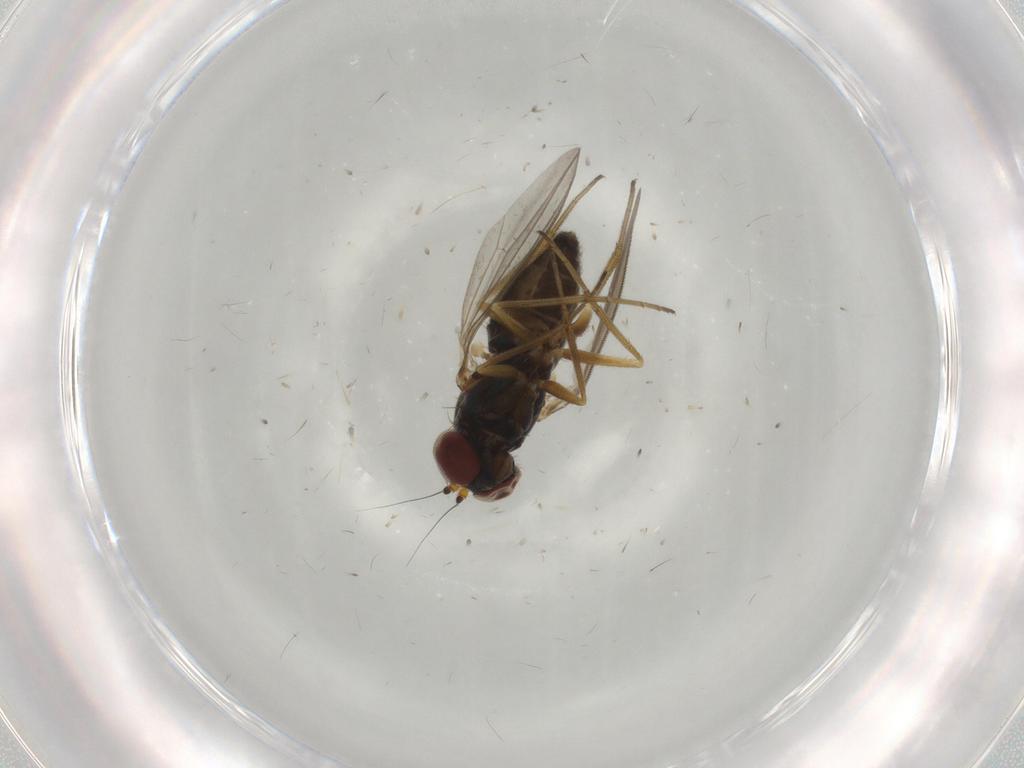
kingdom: Animalia
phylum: Arthropoda
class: Insecta
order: Diptera
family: Dolichopodidae
